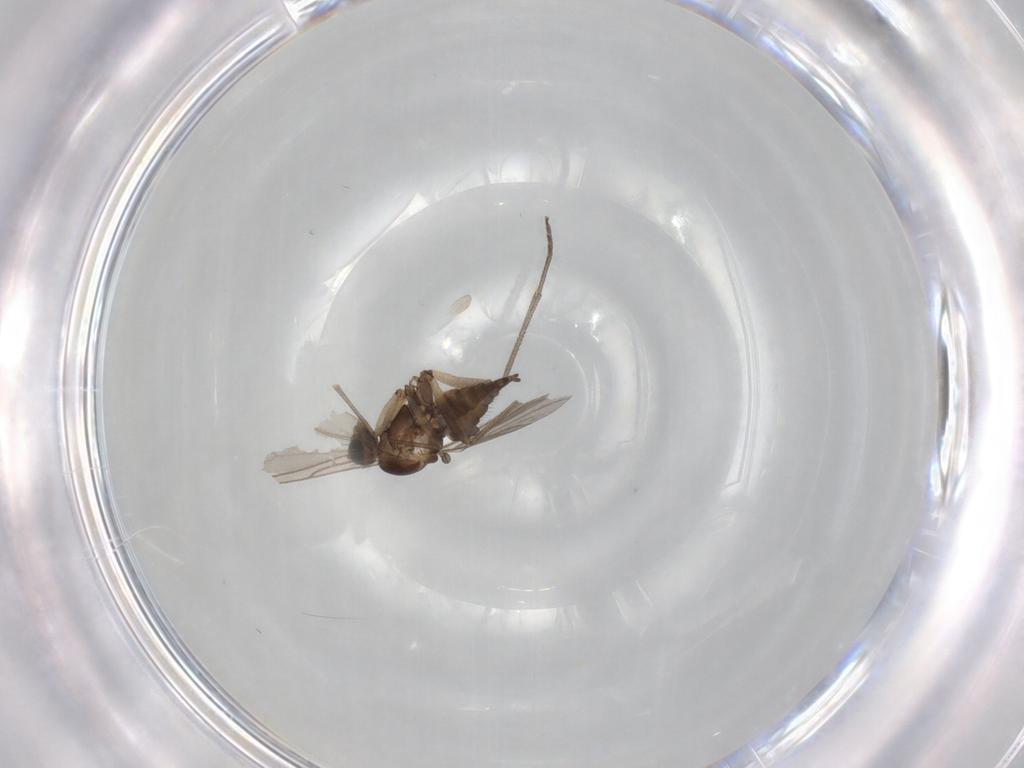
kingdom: Animalia
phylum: Arthropoda
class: Insecta
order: Diptera
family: Sciaridae
